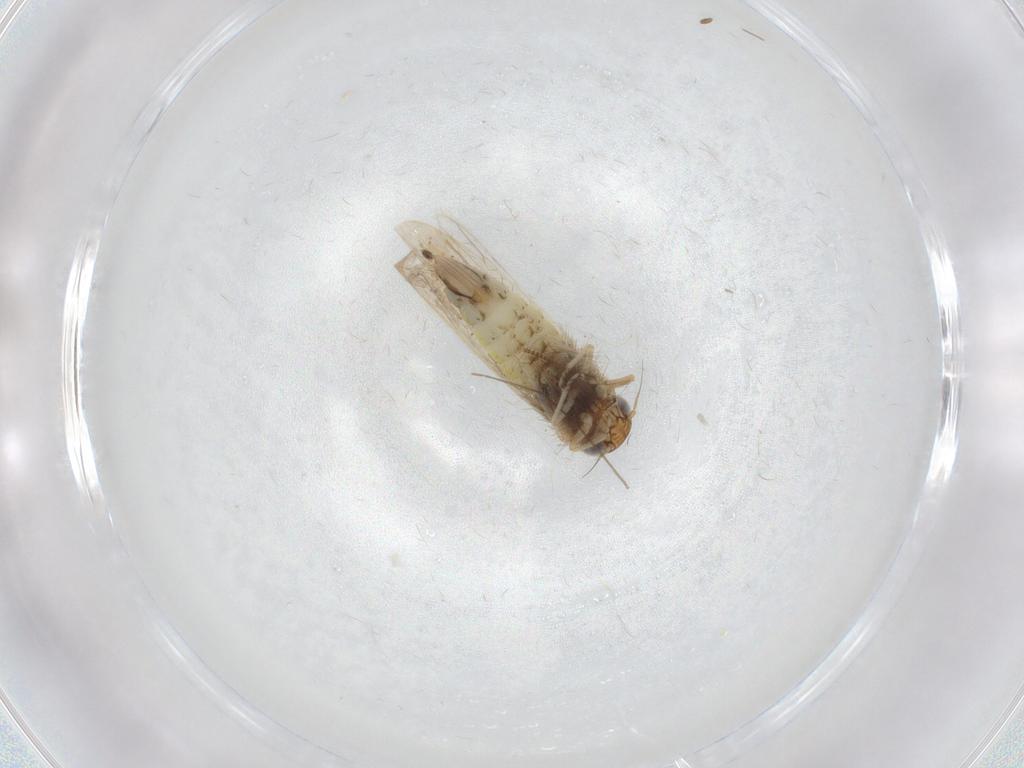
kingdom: Animalia
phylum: Arthropoda
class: Insecta
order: Hemiptera
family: Cicadellidae
